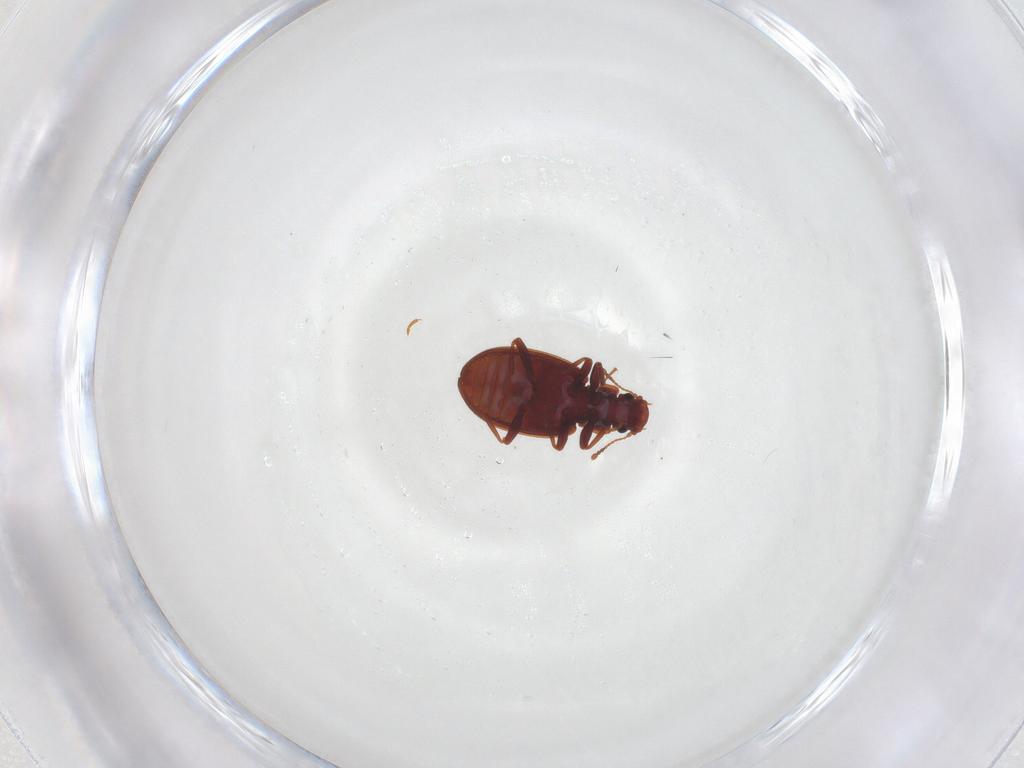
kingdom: Animalia
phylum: Arthropoda
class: Insecta
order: Coleoptera
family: Latridiidae
